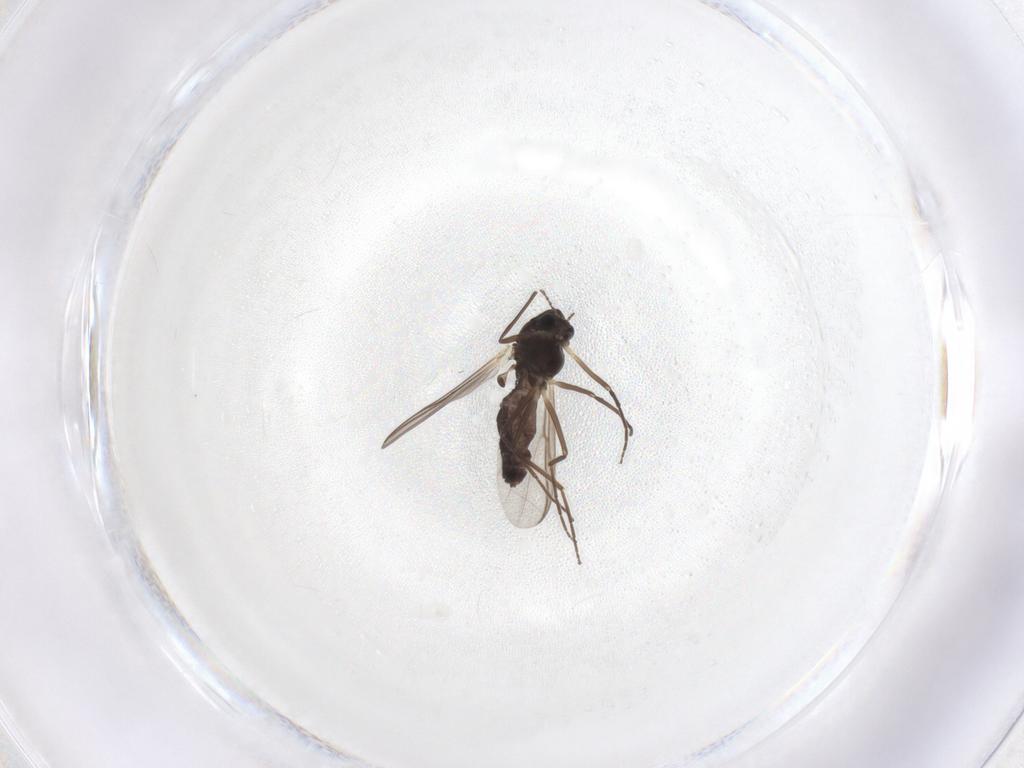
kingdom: Animalia
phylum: Arthropoda
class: Insecta
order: Diptera
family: Chironomidae
